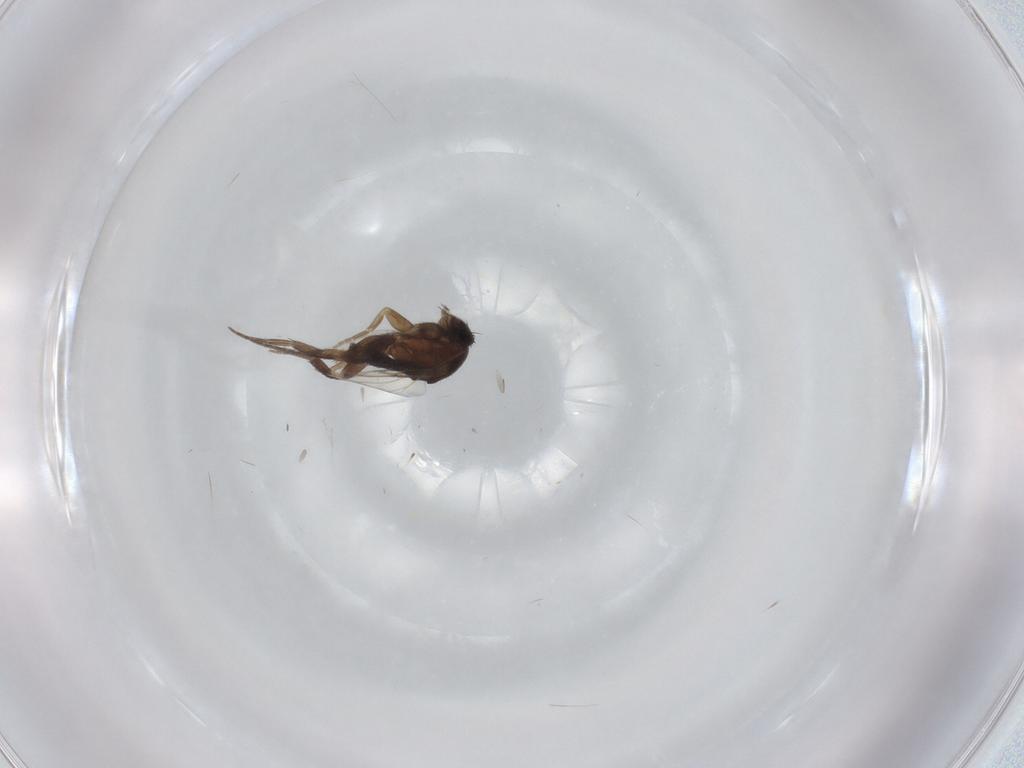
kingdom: Animalia
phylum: Arthropoda
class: Insecta
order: Diptera
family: Phoridae
